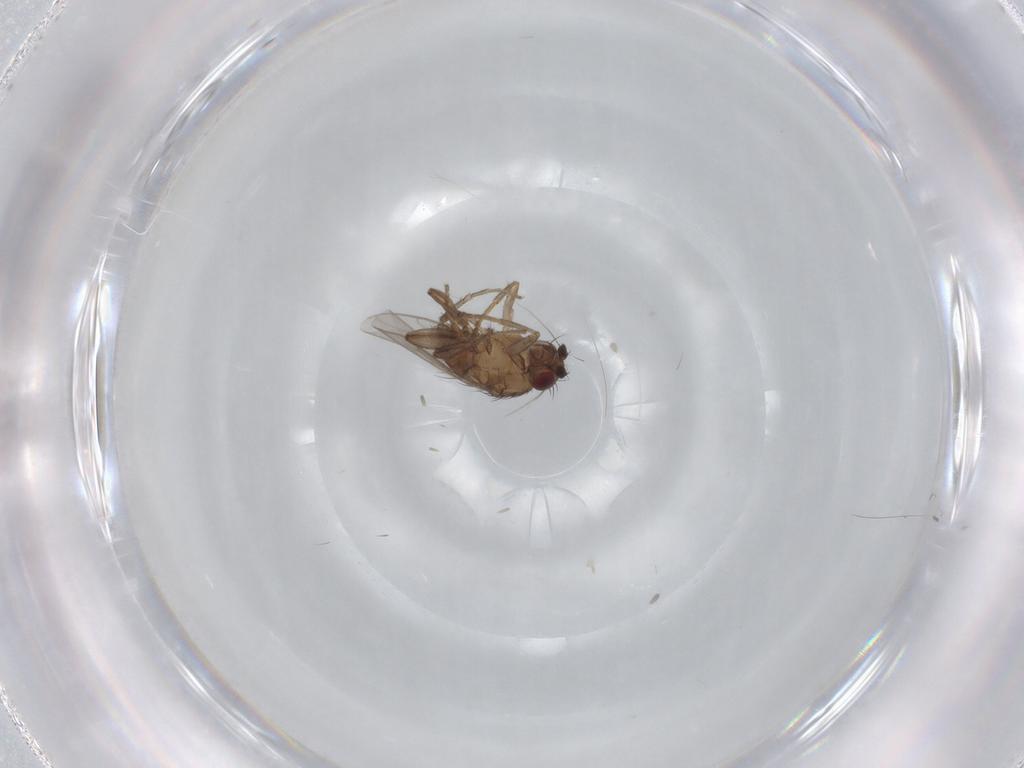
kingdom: Animalia
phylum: Arthropoda
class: Insecta
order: Diptera
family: Sphaeroceridae
